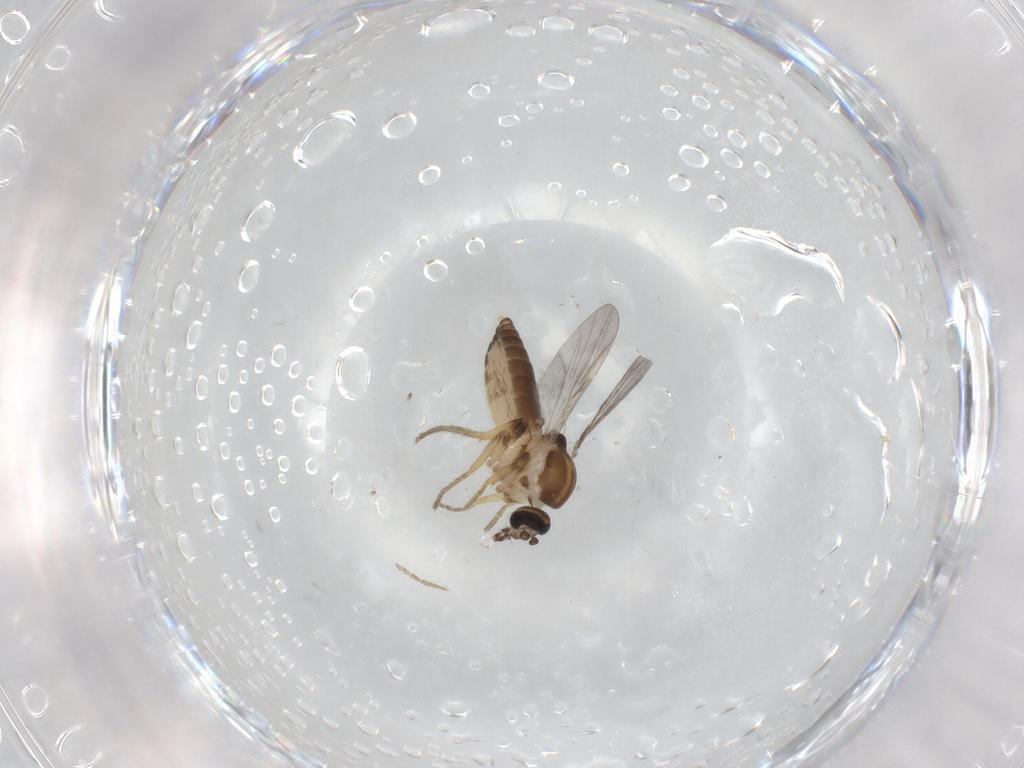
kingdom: Animalia
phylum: Arthropoda
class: Insecta
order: Diptera
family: Ceratopogonidae
